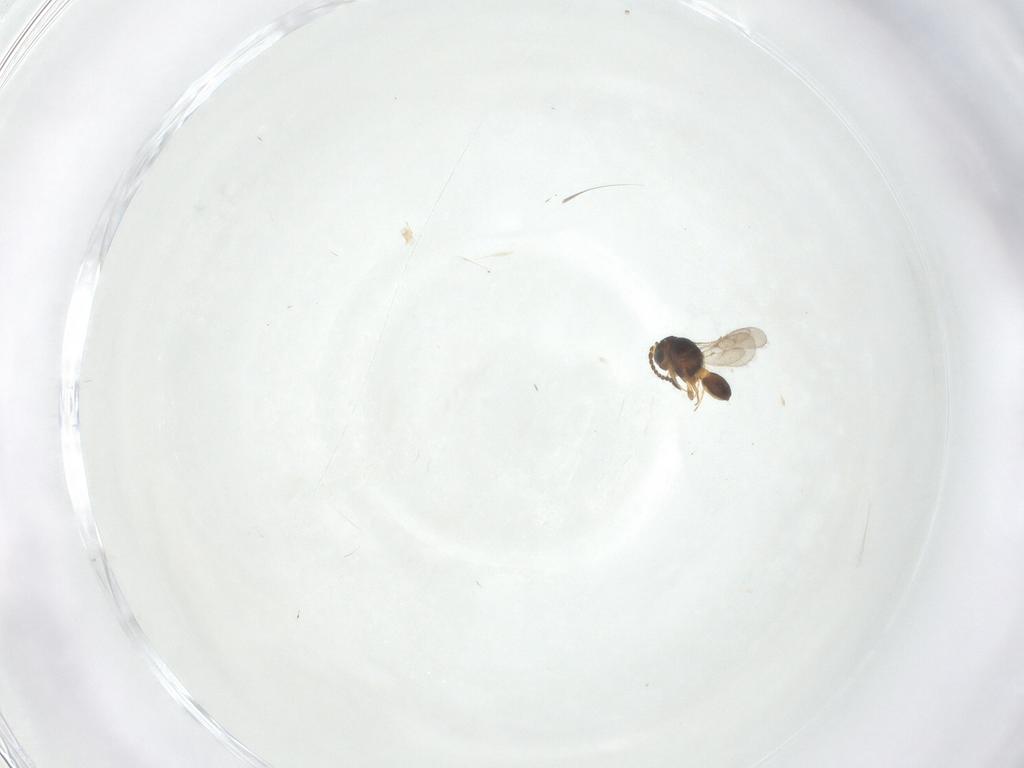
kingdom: Animalia
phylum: Arthropoda
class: Insecta
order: Hymenoptera
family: Scelionidae
